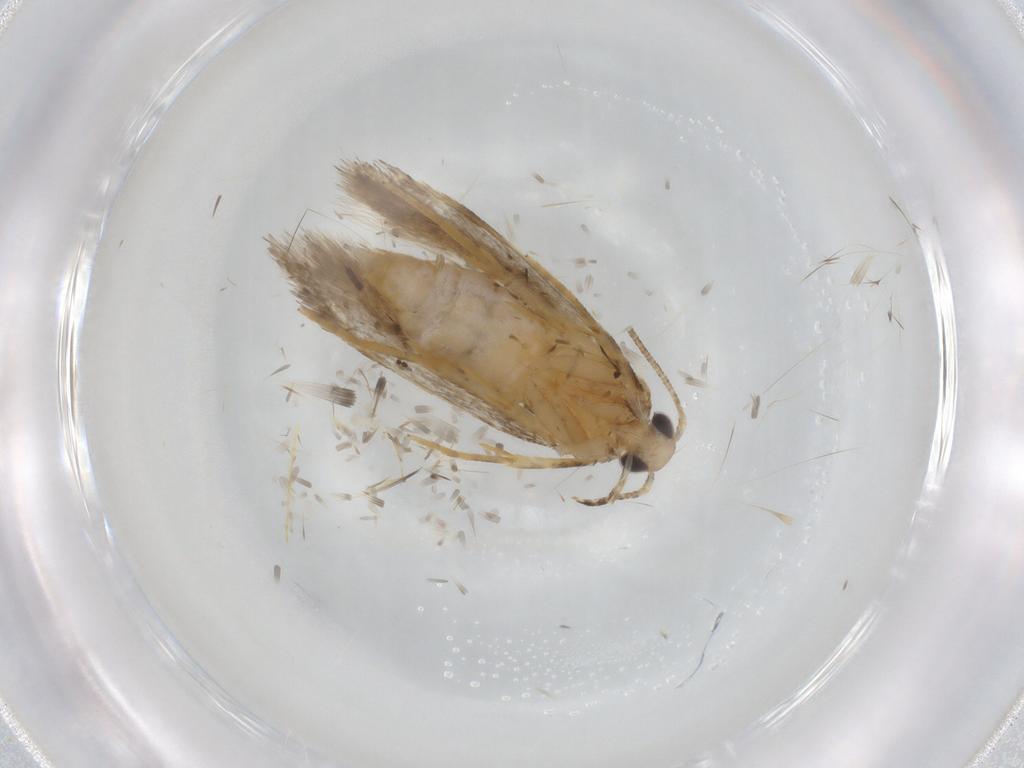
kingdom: Animalia
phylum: Arthropoda
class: Insecta
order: Lepidoptera
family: Autostichidae
